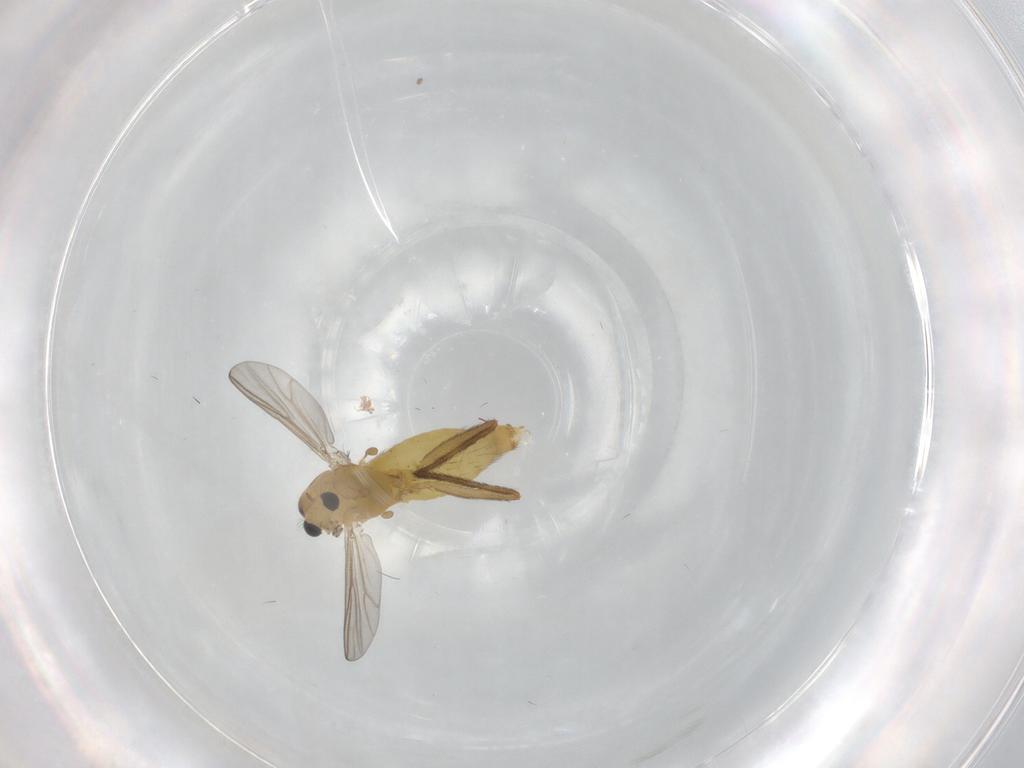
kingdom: Animalia
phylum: Arthropoda
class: Insecta
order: Diptera
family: Chironomidae
